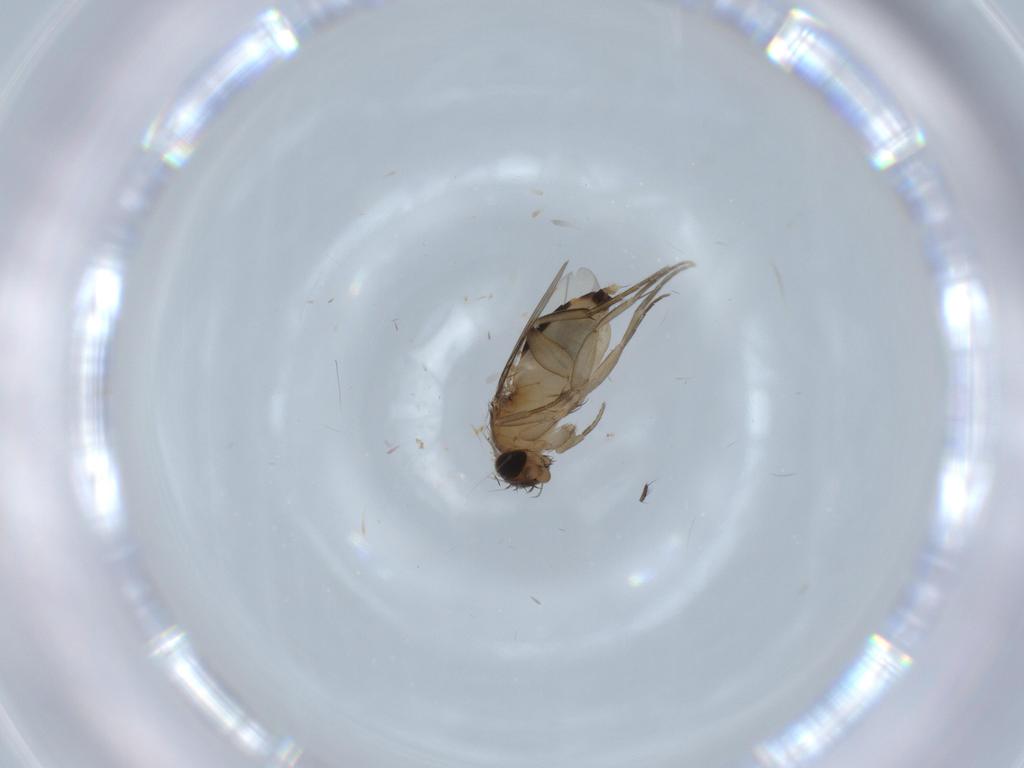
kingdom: Animalia
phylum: Arthropoda
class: Insecta
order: Diptera
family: Phoridae
